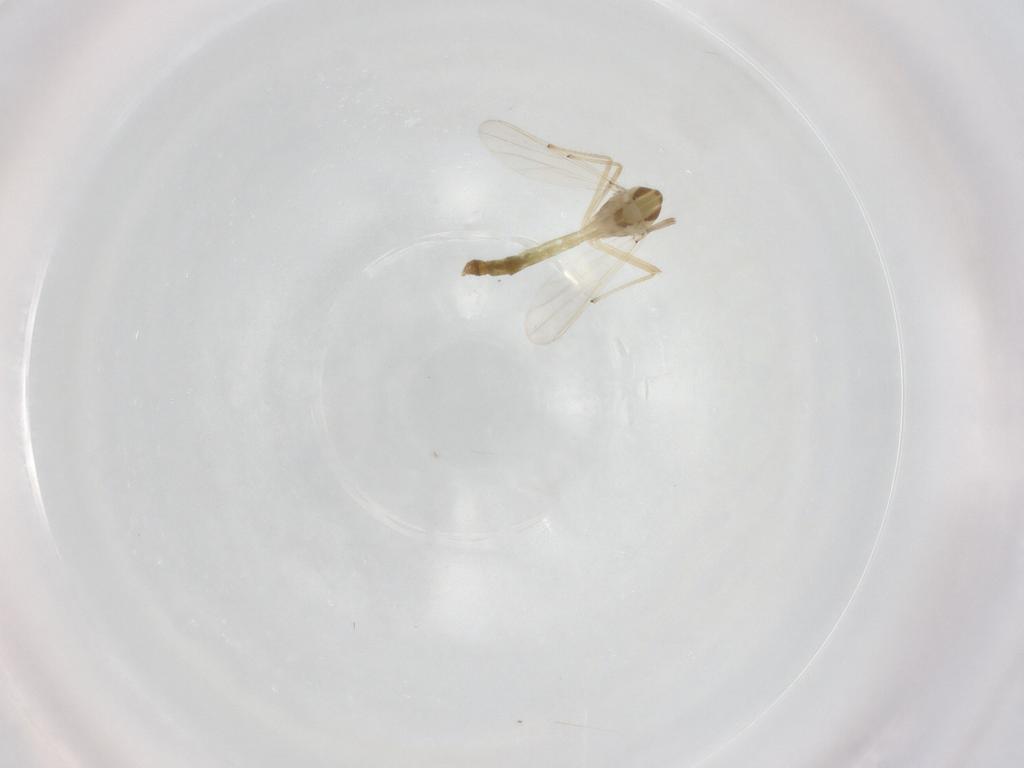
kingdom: Animalia
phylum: Arthropoda
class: Insecta
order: Diptera
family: Chironomidae
